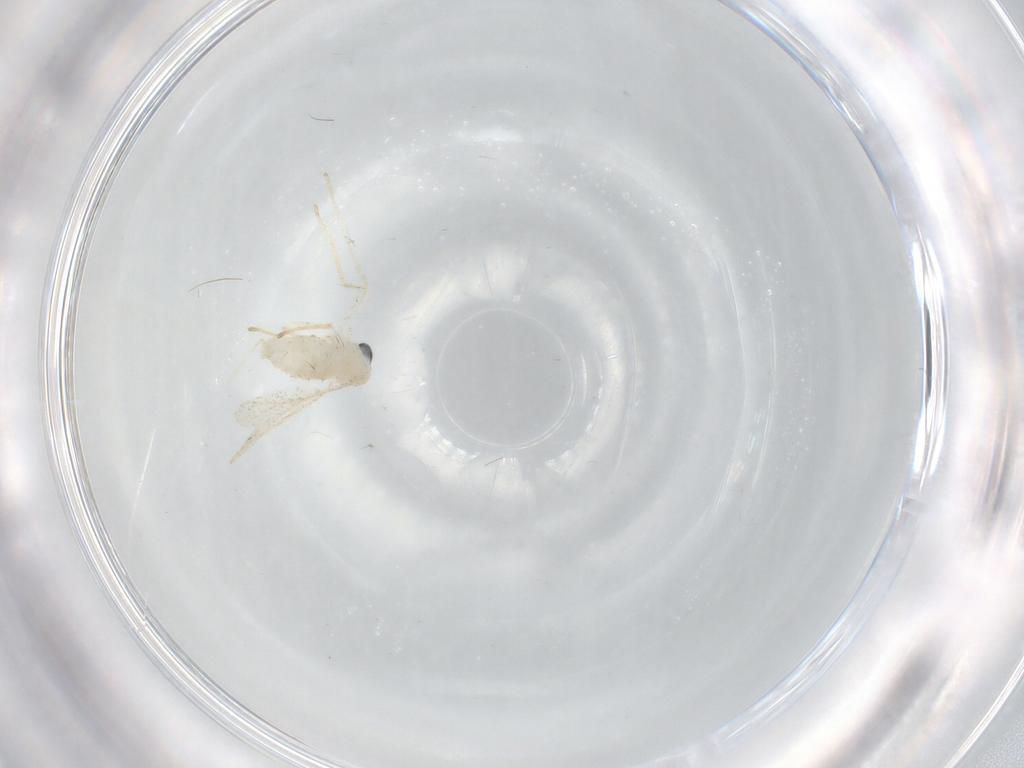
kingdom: Animalia
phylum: Arthropoda
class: Insecta
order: Diptera
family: Cecidomyiidae
